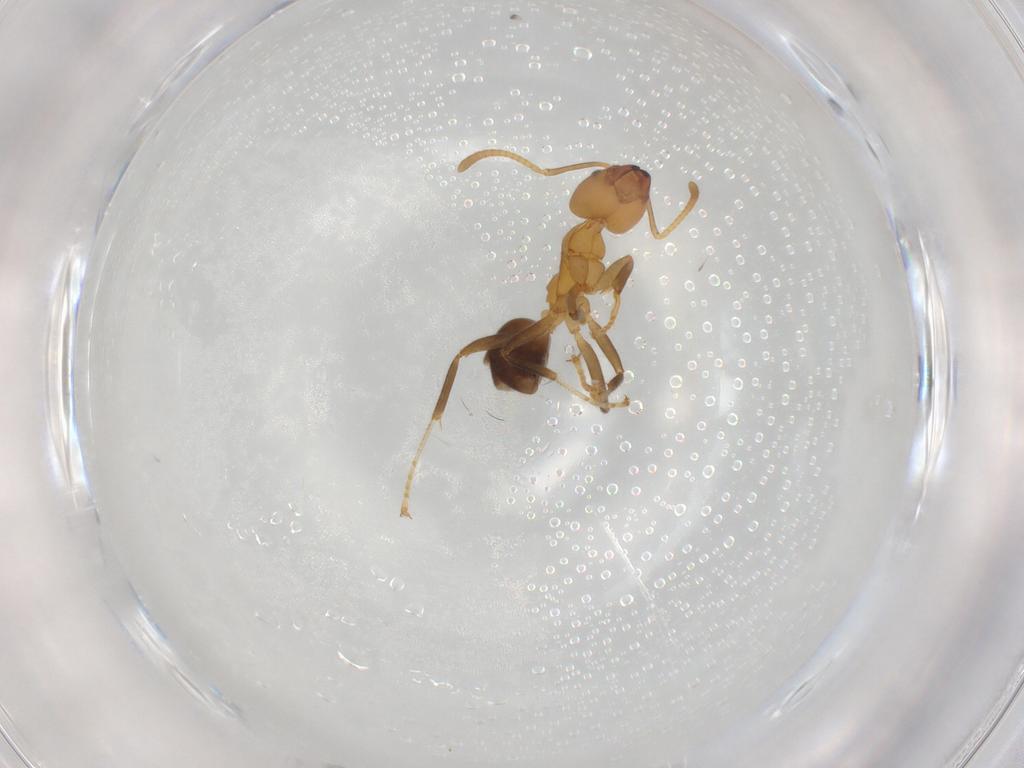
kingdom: Animalia
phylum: Arthropoda
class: Insecta
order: Hymenoptera
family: Formicidae
